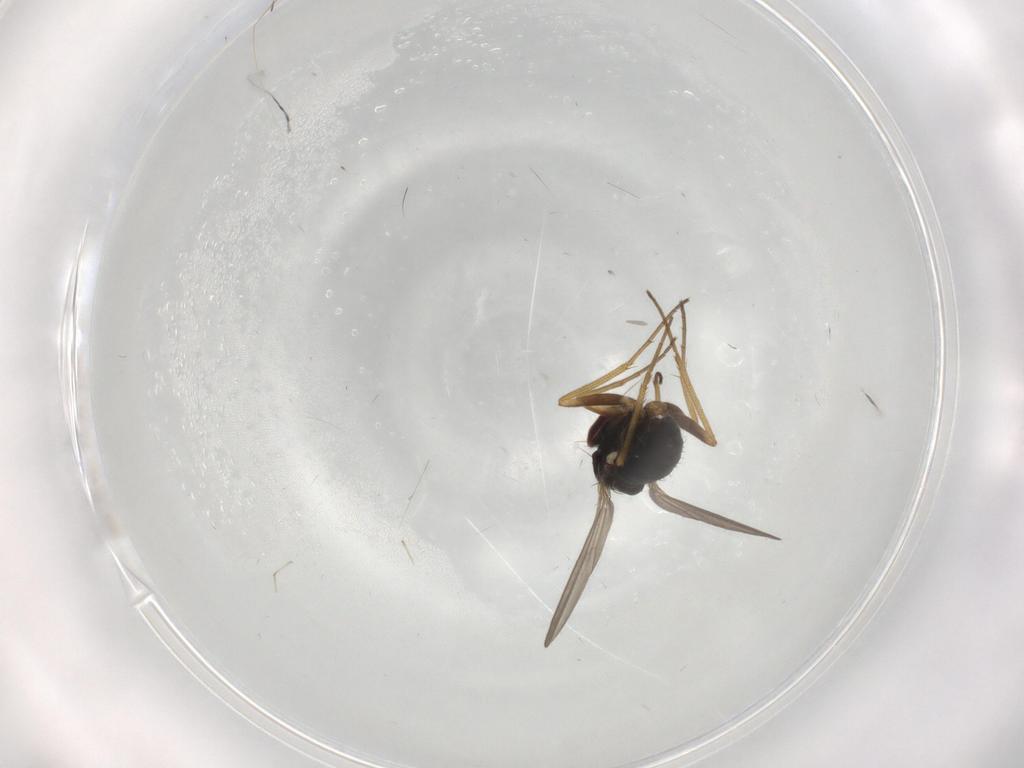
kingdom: Animalia
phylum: Arthropoda
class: Insecta
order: Diptera
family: Dolichopodidae
